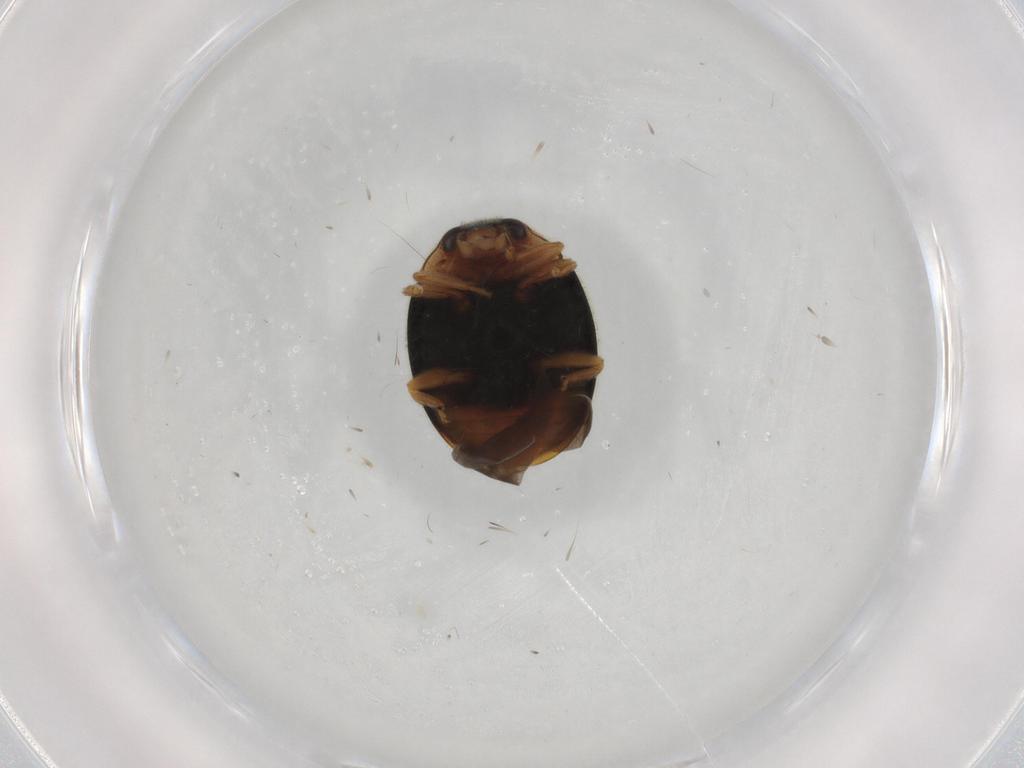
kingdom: Animalia
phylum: Arthropoda
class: Insecta
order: Coleoptera
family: Coccinellidae
